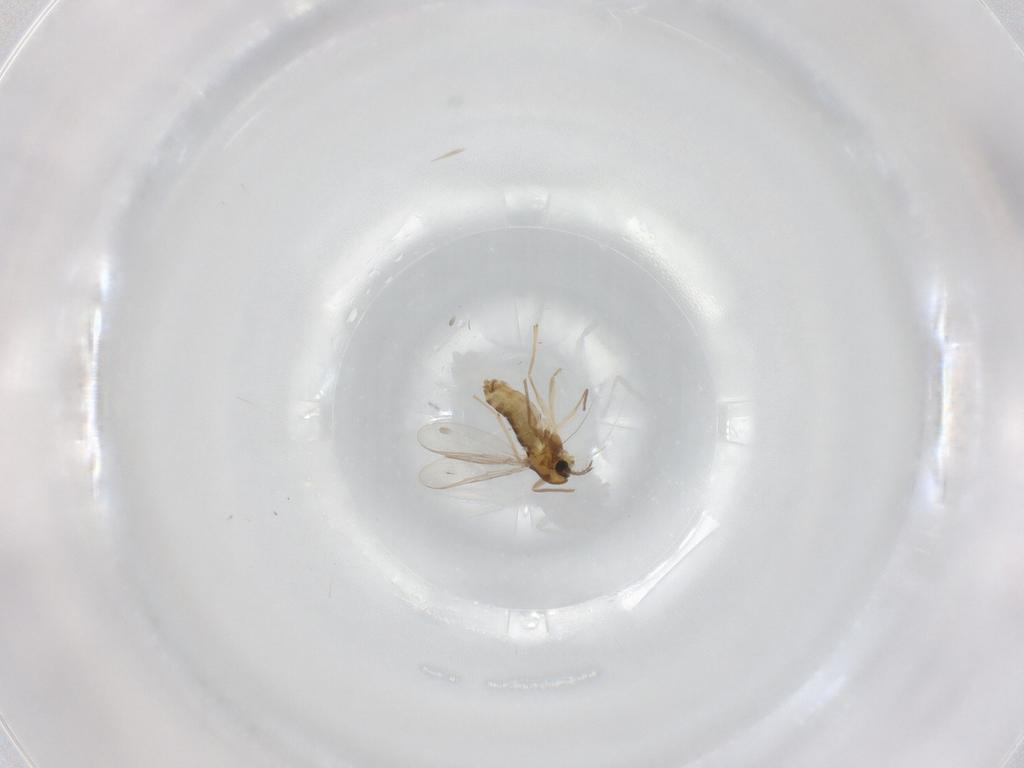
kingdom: Animalia
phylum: Arthropoda
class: Insecta
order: Diptera
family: Chironomidae
